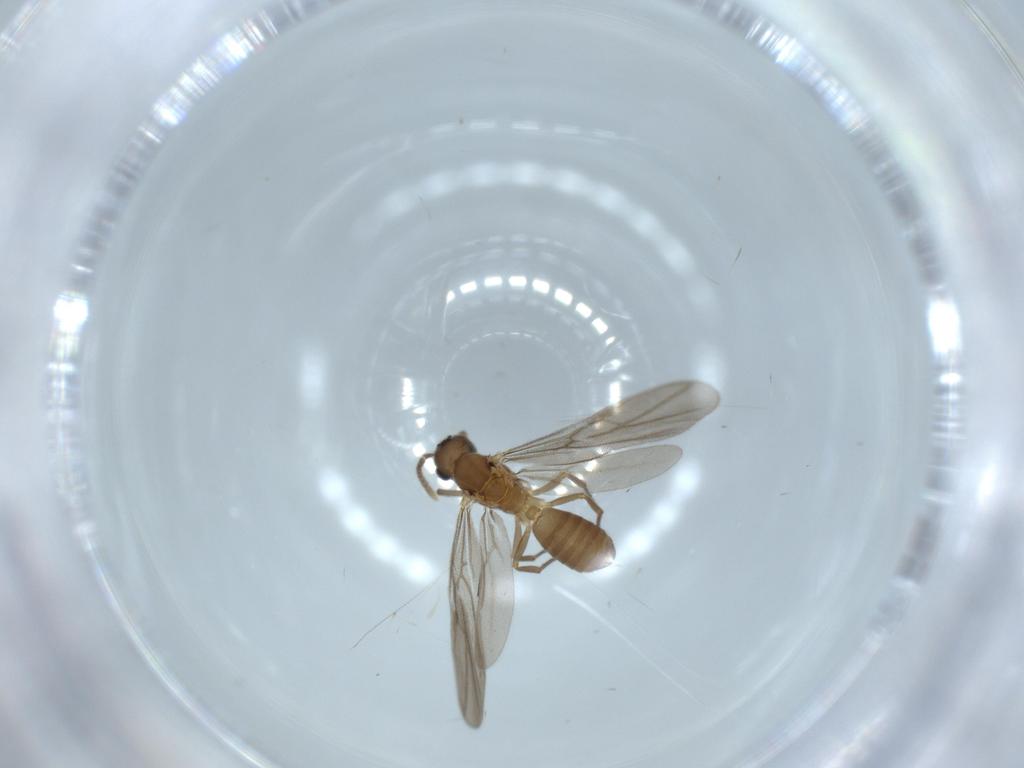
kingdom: Animalia
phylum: Arthropoda
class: Insecta
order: Hymenoptera
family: Formicidae
